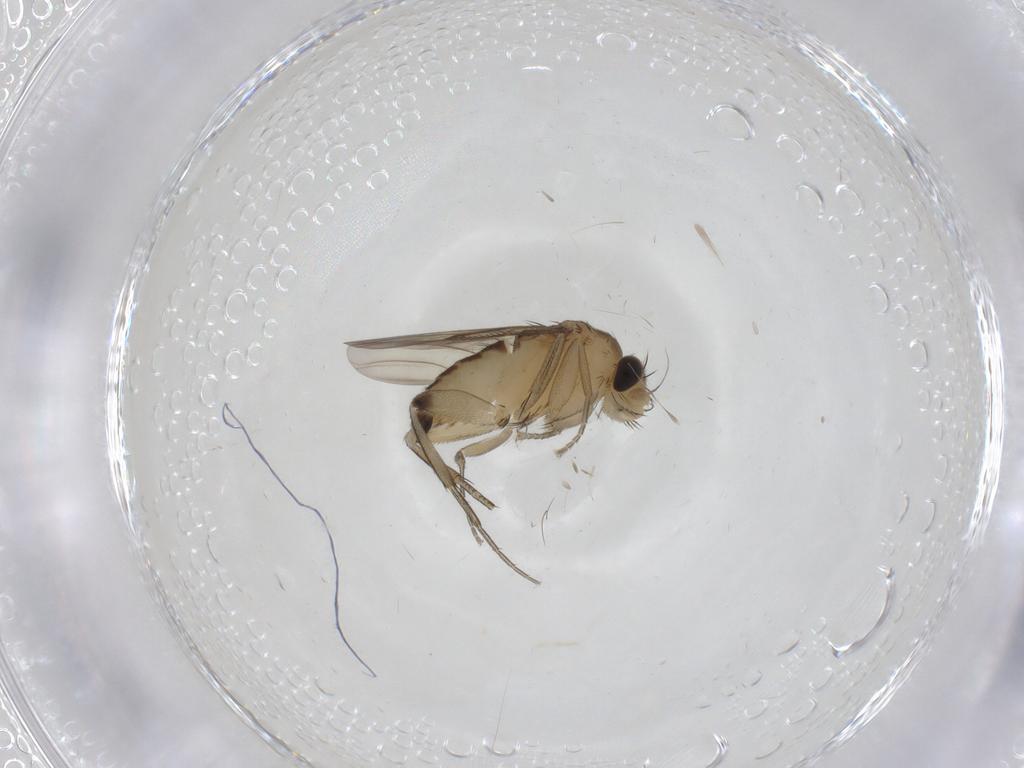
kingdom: Animalia
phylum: Arthropoda
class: Insecta
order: Diptera
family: Phoridae
